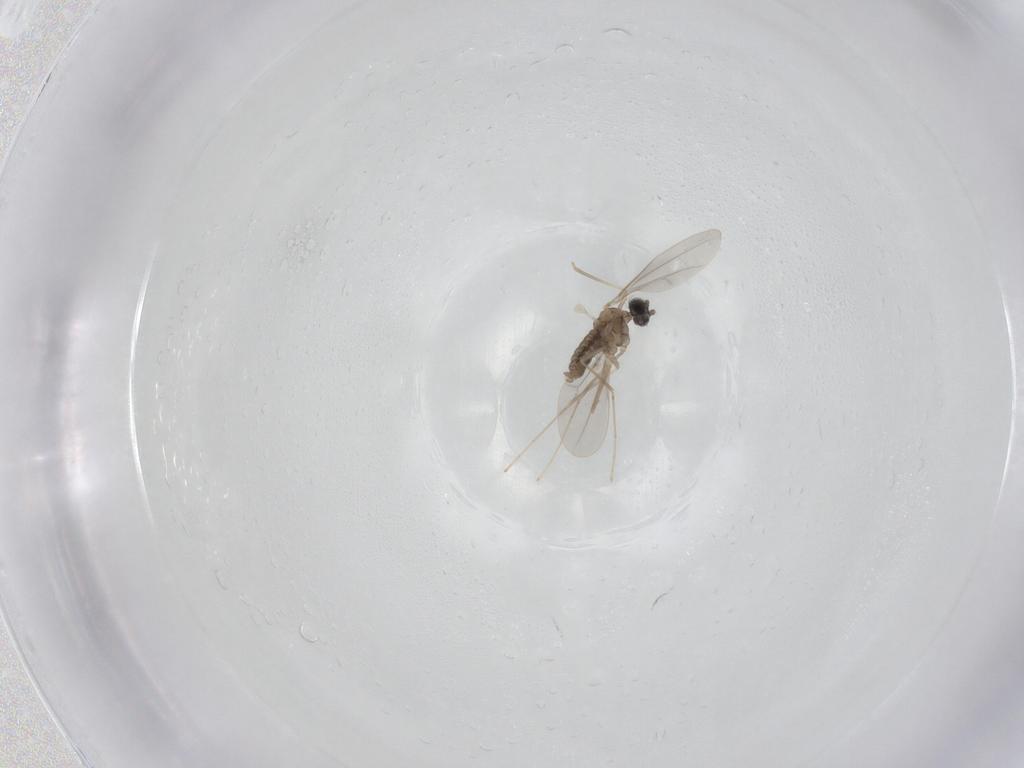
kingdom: Animalia
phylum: Arthropoda
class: Insecta
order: Diptera
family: Cecidomyiidae
